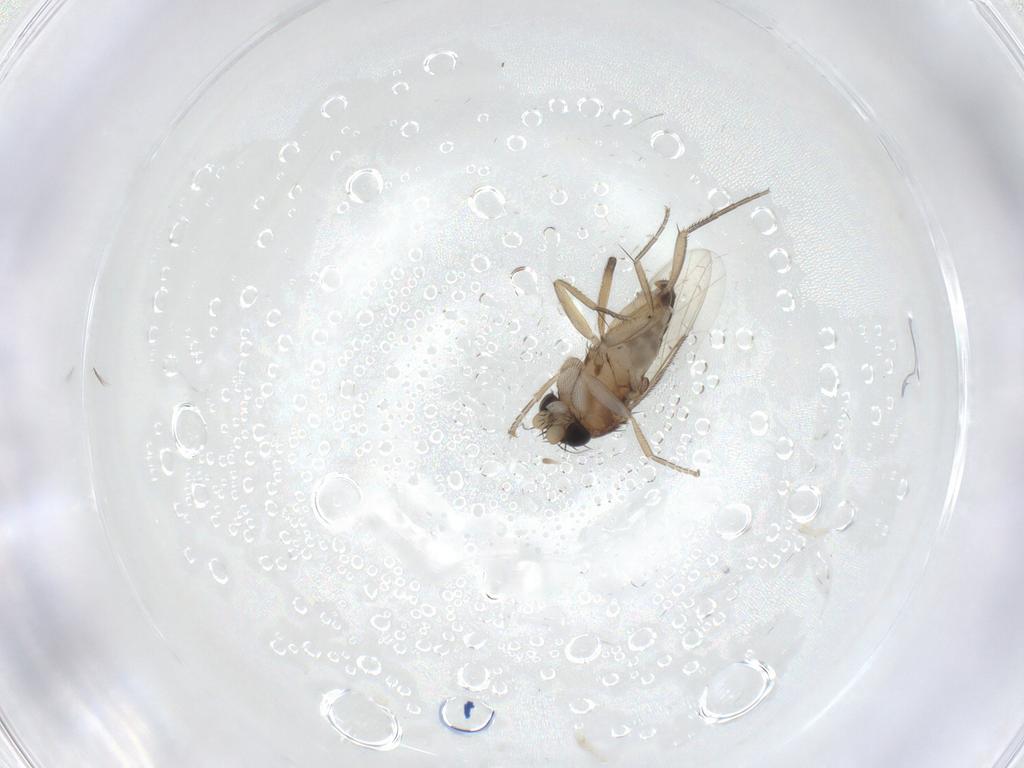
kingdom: Animalia
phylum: Arthropoda
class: Insecta
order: Diptera
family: Phoridae
